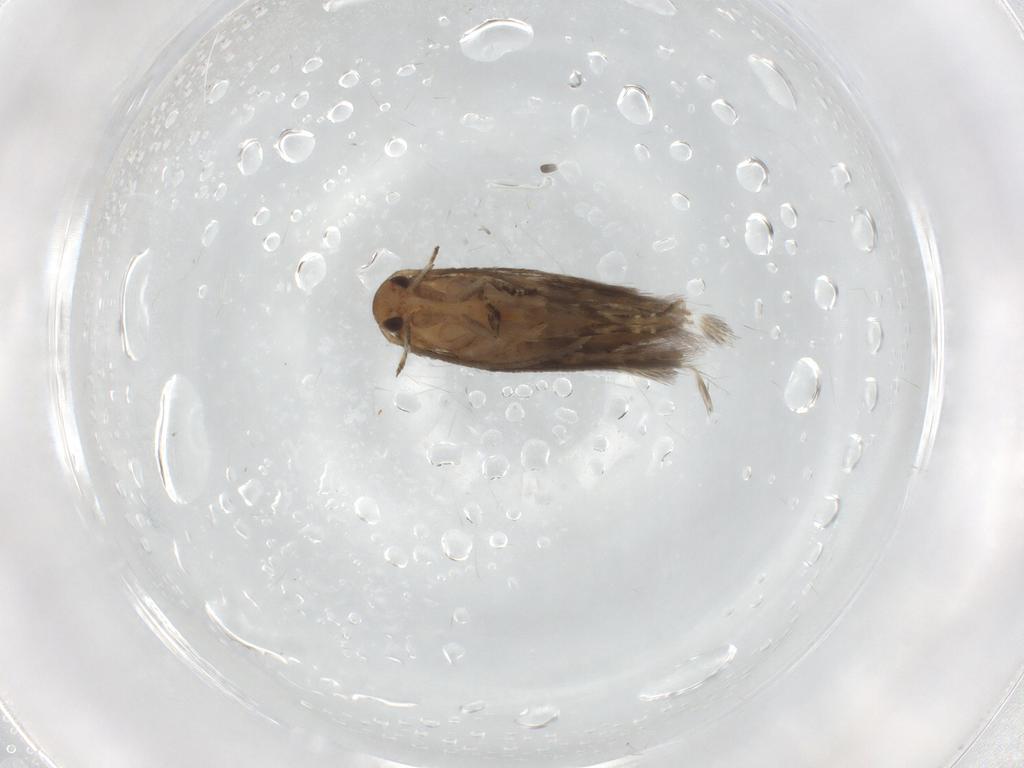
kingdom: Animalia
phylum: Arthropoda
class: Insecta
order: Lepidoptera
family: Elachistidae
